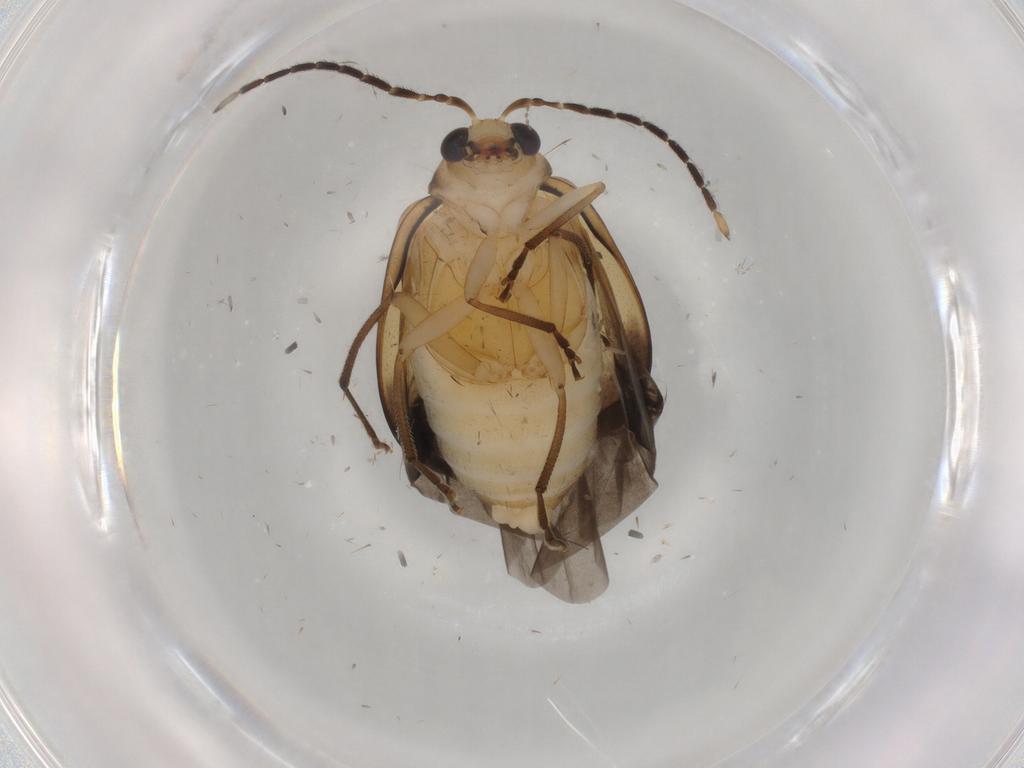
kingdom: Animalia
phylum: Arthropoda
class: Insecta
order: Coleoptera
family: Chrysomelidae
